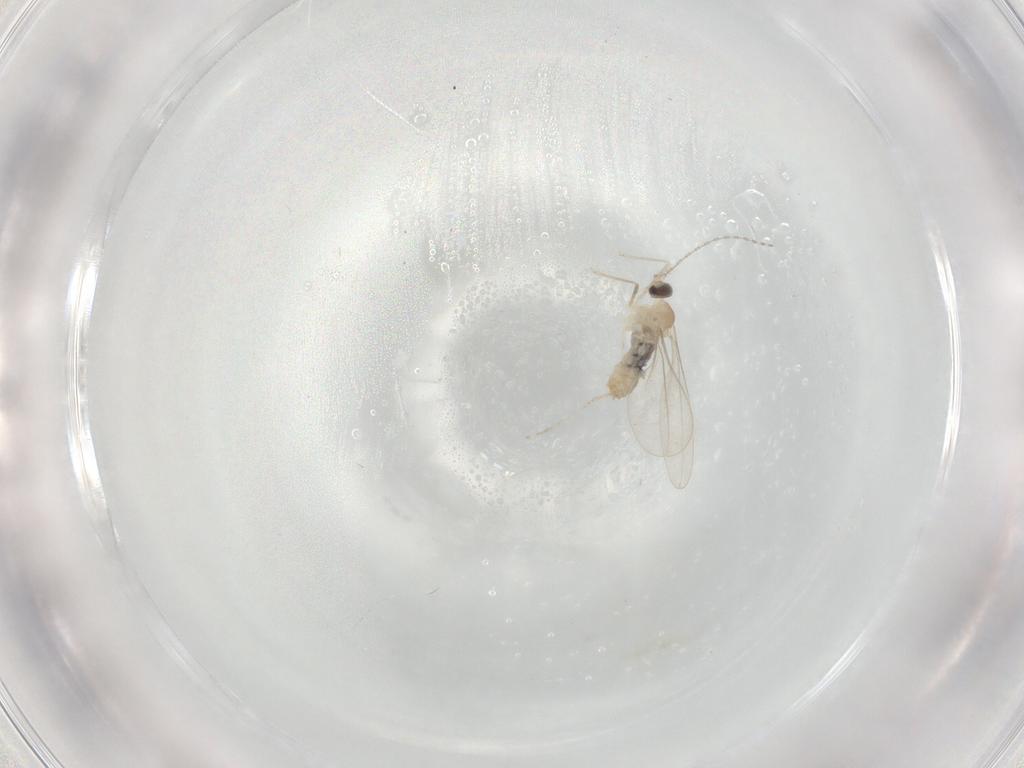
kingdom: Animalia
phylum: Arthropoda
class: Insecta
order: Diptera
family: Cecidomyiidae
